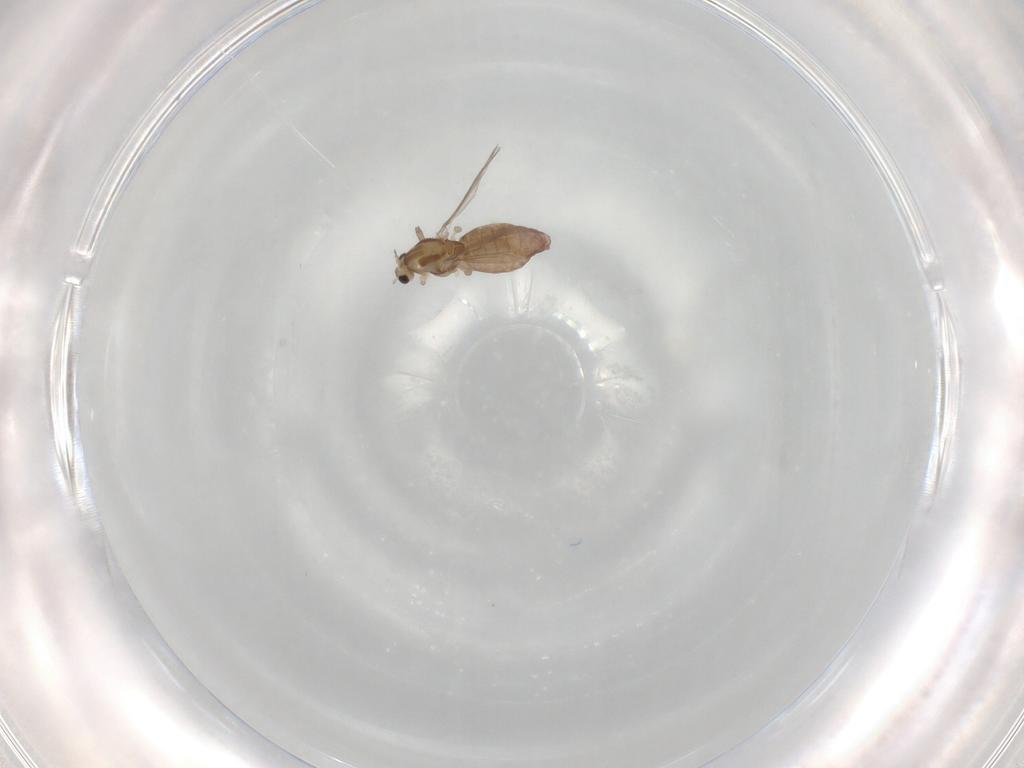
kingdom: Animalia
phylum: Arthropoda
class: Insecta
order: Diptera
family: Chironomidae
